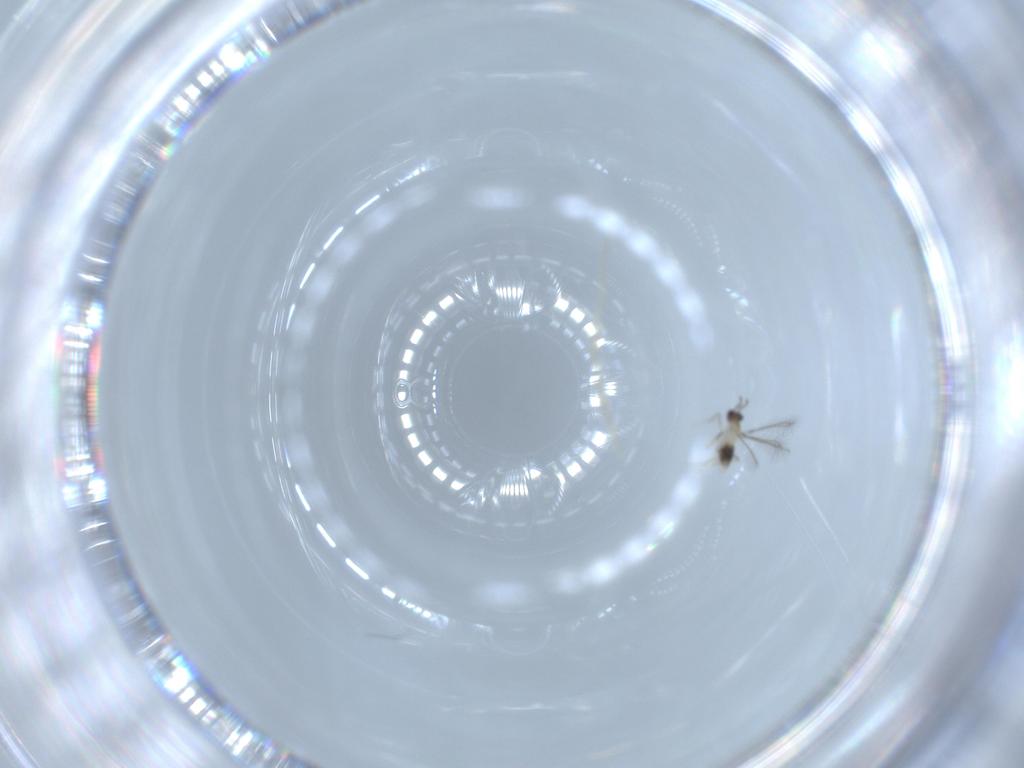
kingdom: Animalia
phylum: Arthropoda
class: Insecta
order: Hymenoptera
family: Mymaridae
